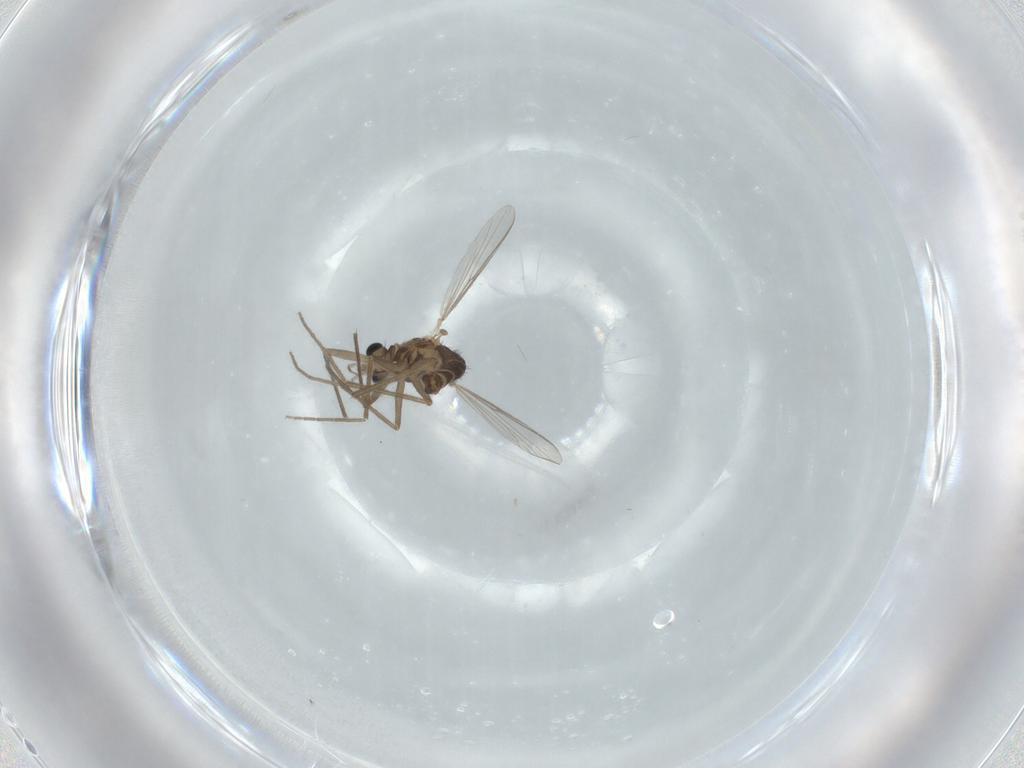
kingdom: Animalia
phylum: Arthropoda
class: Insecta
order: Diptera
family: Chironomidae
